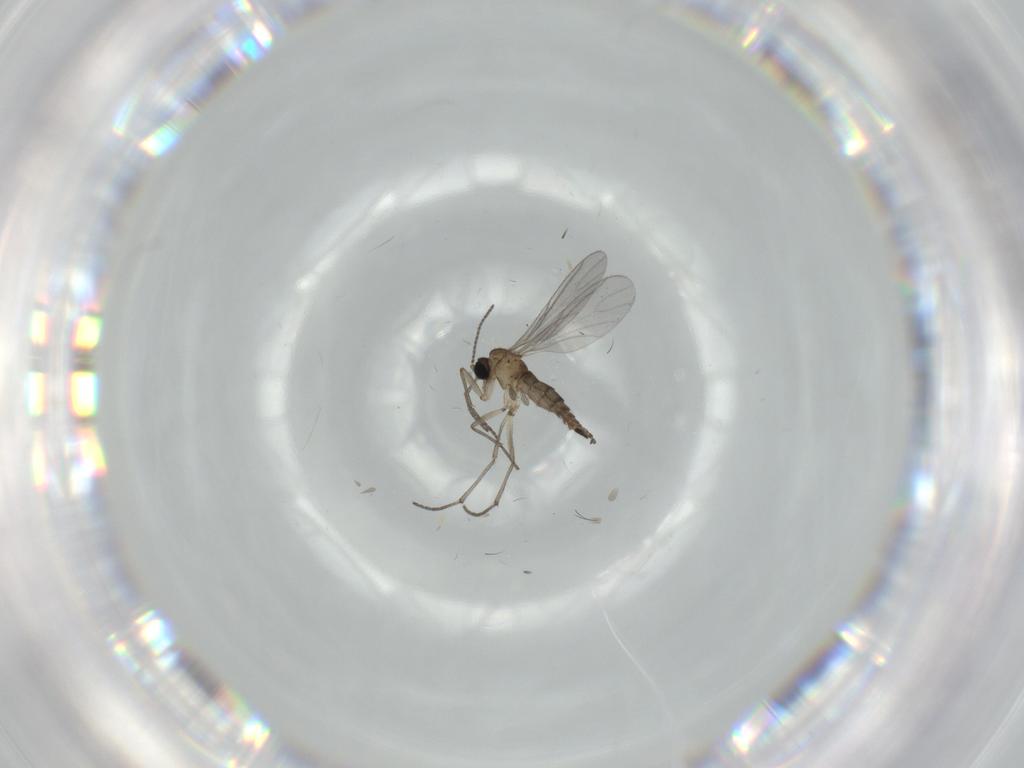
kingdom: Animalia
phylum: Arthropoda
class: Insecta
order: Diptera
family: Sciaridae
